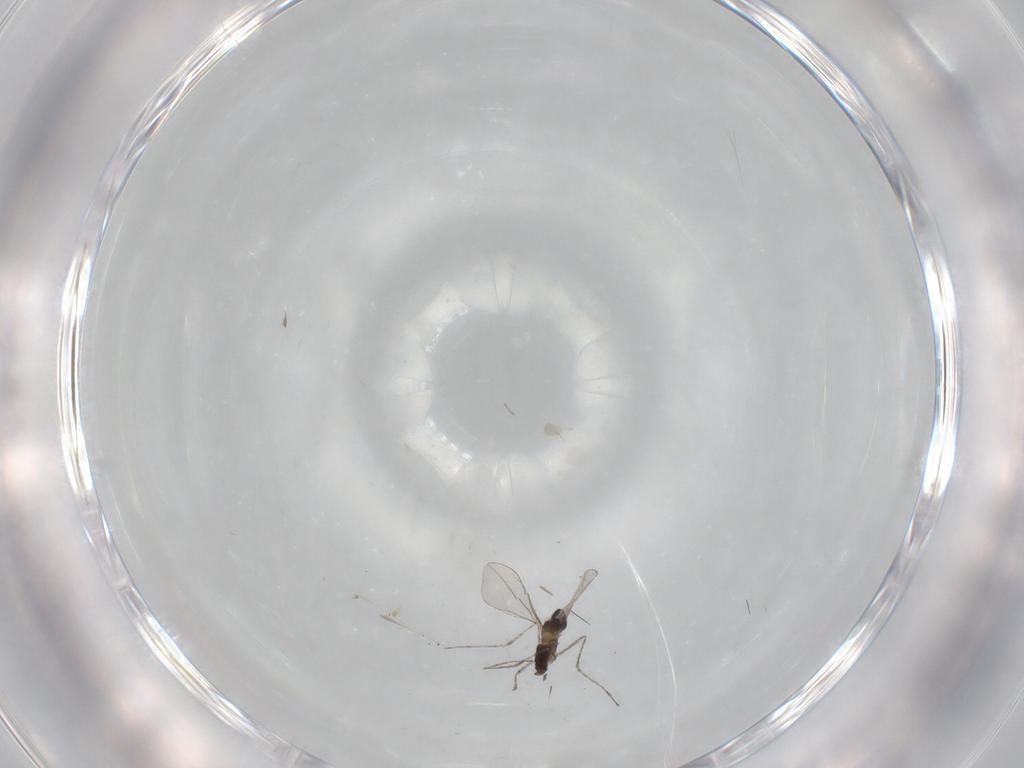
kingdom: Animalia
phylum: Arthropoda
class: Insecta
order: Diptera
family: Cecidomyiidae
